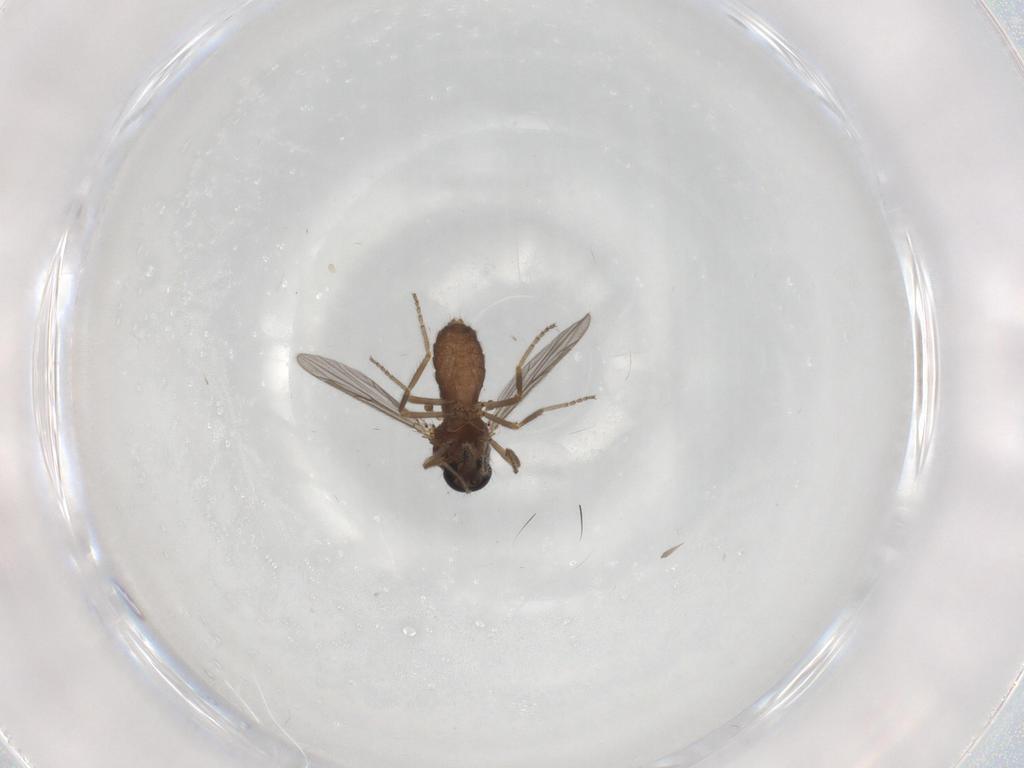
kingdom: Animalia
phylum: Arthropoda
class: Insecta
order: Diptera
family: Ceratopogonidae
